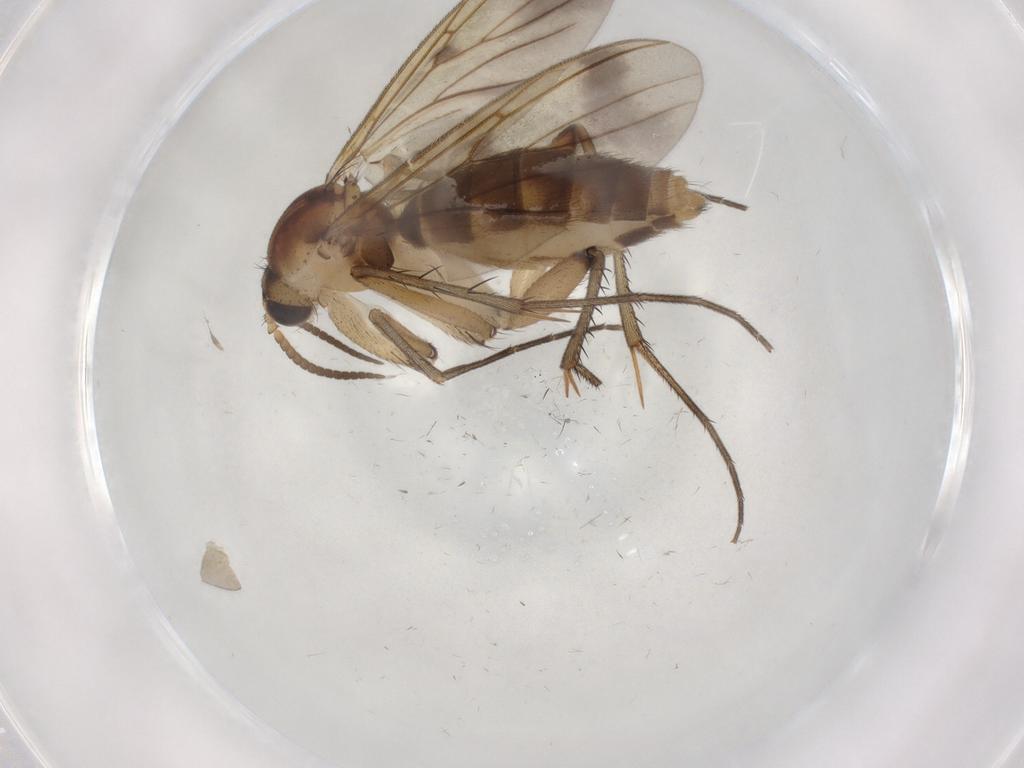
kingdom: Animalia
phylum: Arthropoda
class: Insecta
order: Diptera
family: Mycetophilidae
